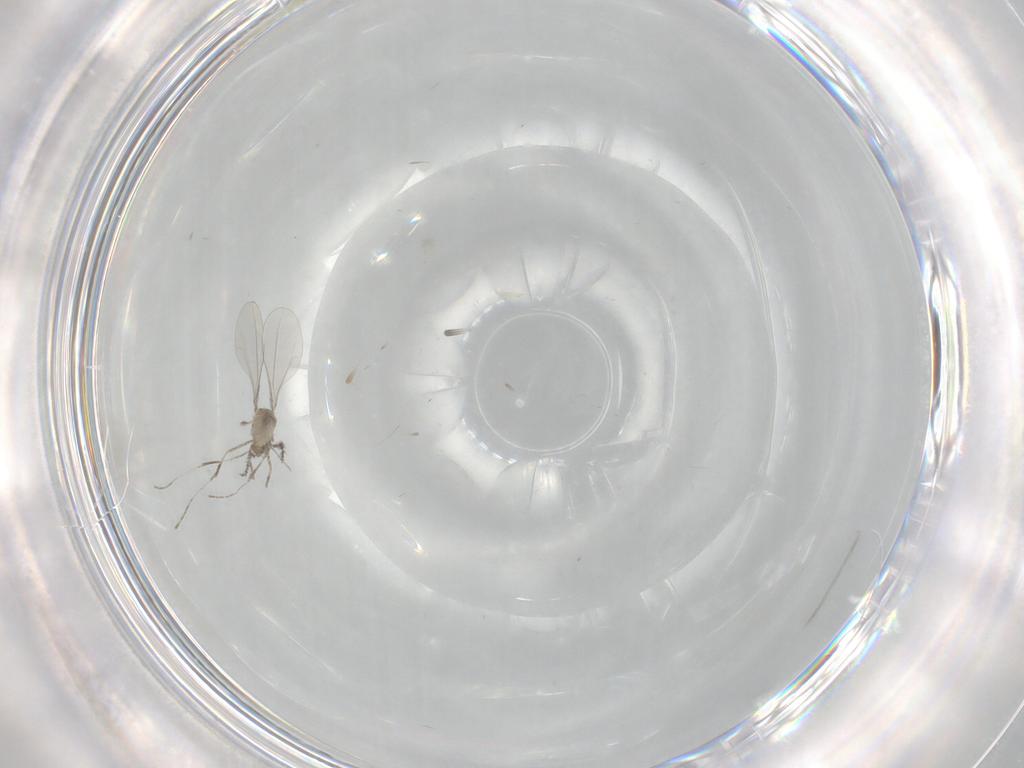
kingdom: Animalia
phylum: Arthropoda
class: Insecta
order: Diptera
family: Cecidomyiidae
